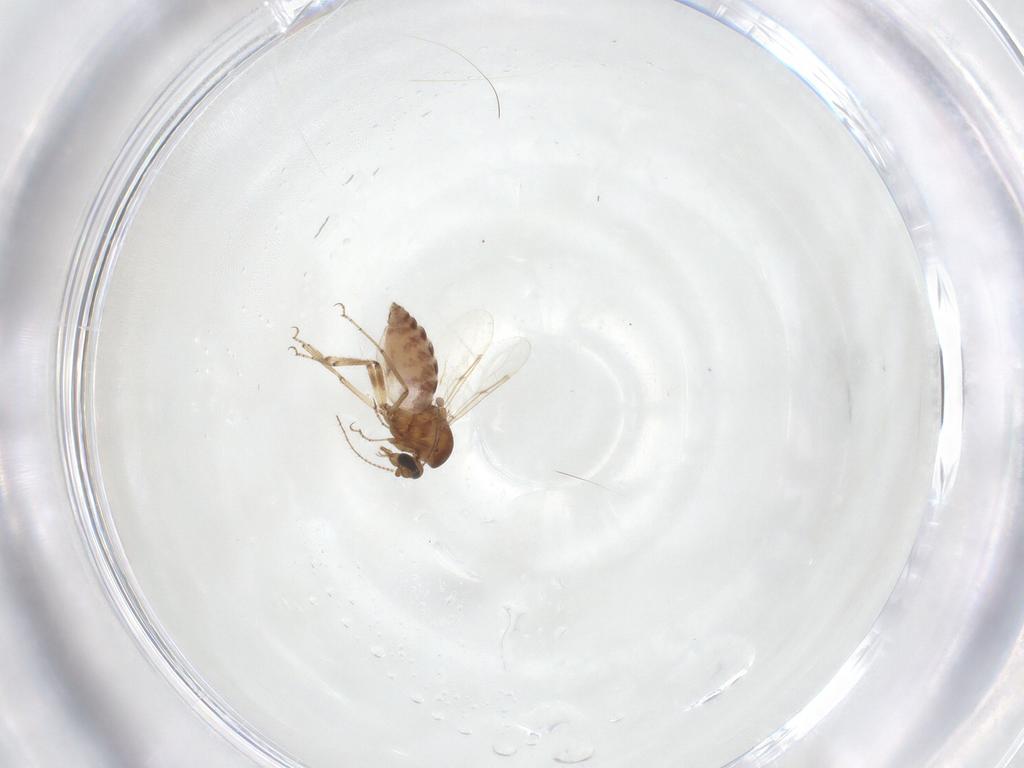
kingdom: Animalia
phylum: Arthropoda
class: Insecta
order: Diptera
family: Ceratopogonidae
